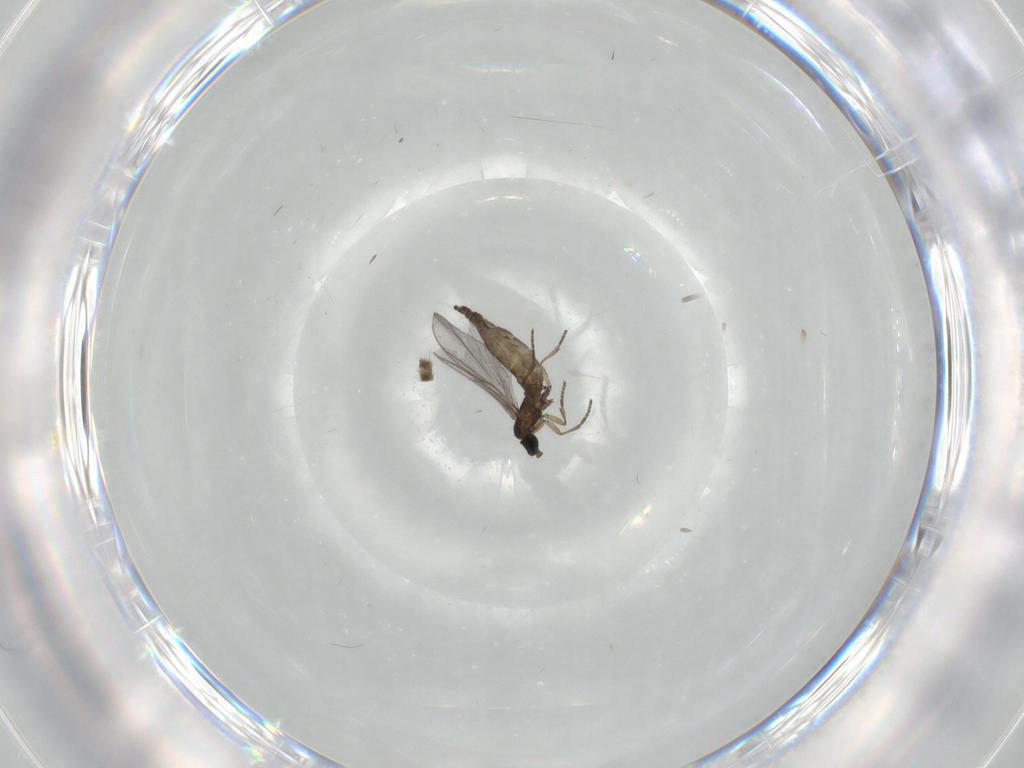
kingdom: Animalia
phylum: Arthropoda
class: Insecta
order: Diptera
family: Sciaridae
